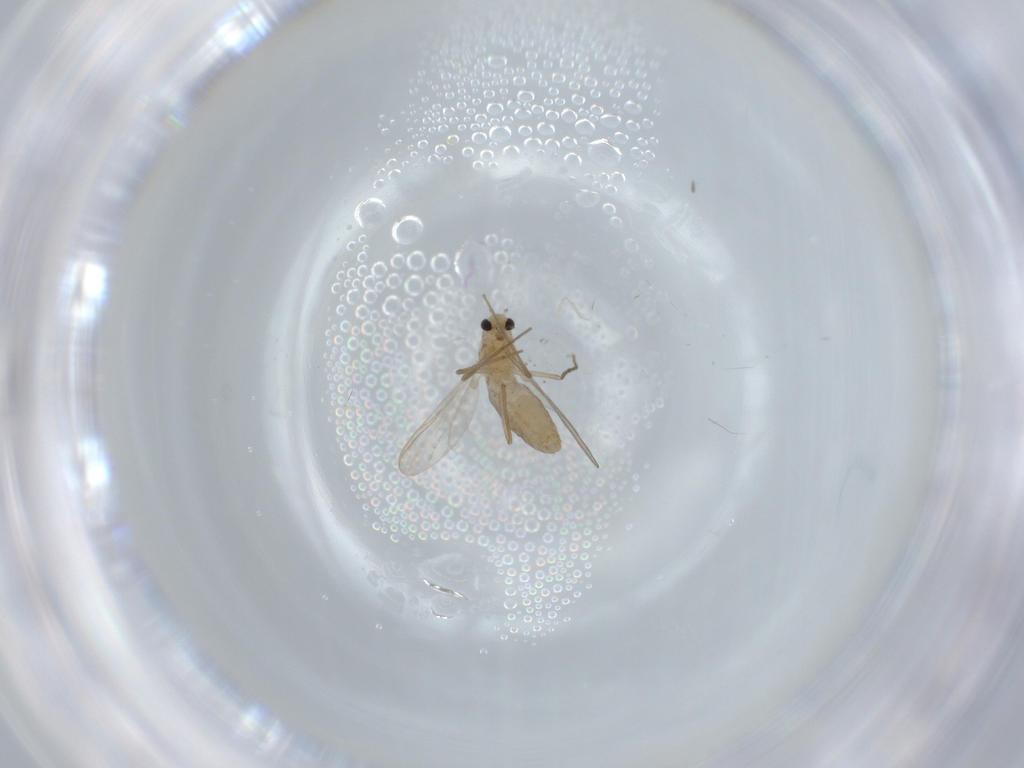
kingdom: Animalia
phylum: Arthropoda
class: Insecta
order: Diptera
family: Chironomidae
